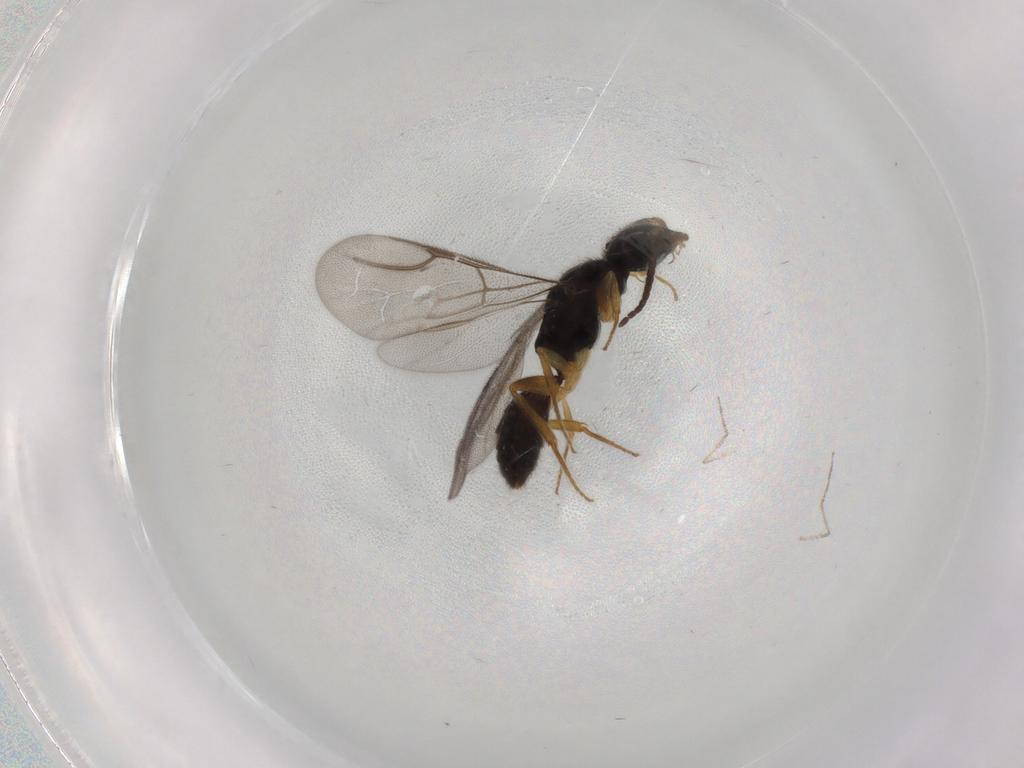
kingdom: Animalia
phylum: Arthropoda
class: Insecta
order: Hymenoptera
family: Bethylidae
